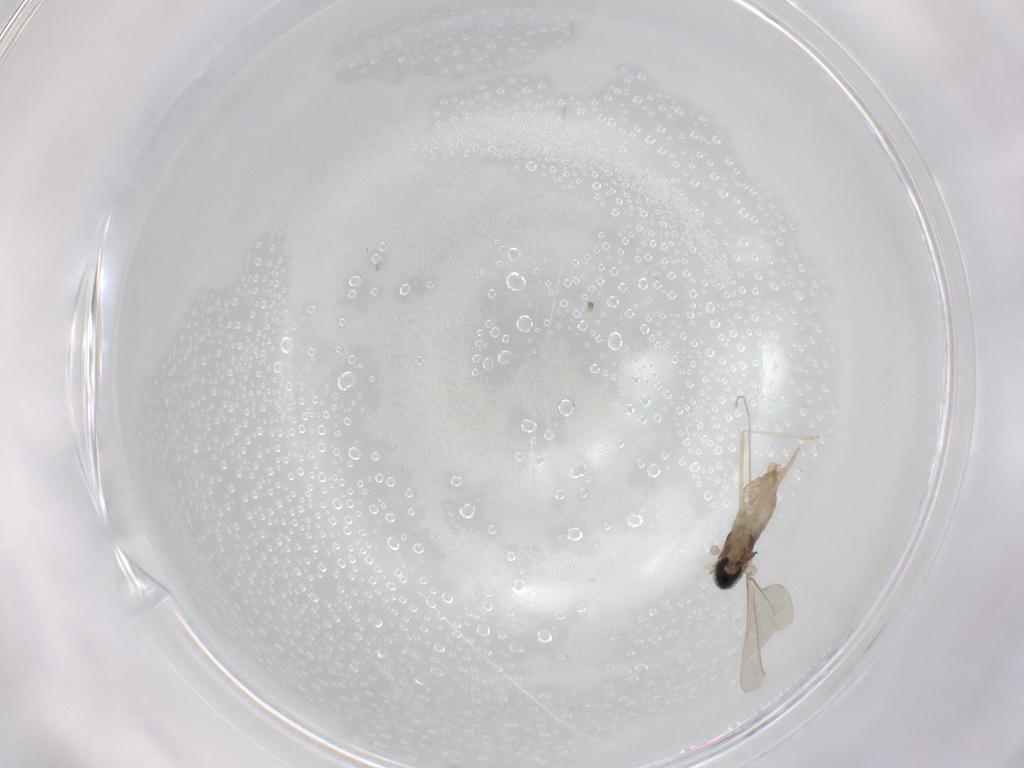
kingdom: Animalia
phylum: Arthropoda
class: Insecta
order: Diptera
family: Cecidomyiidae
